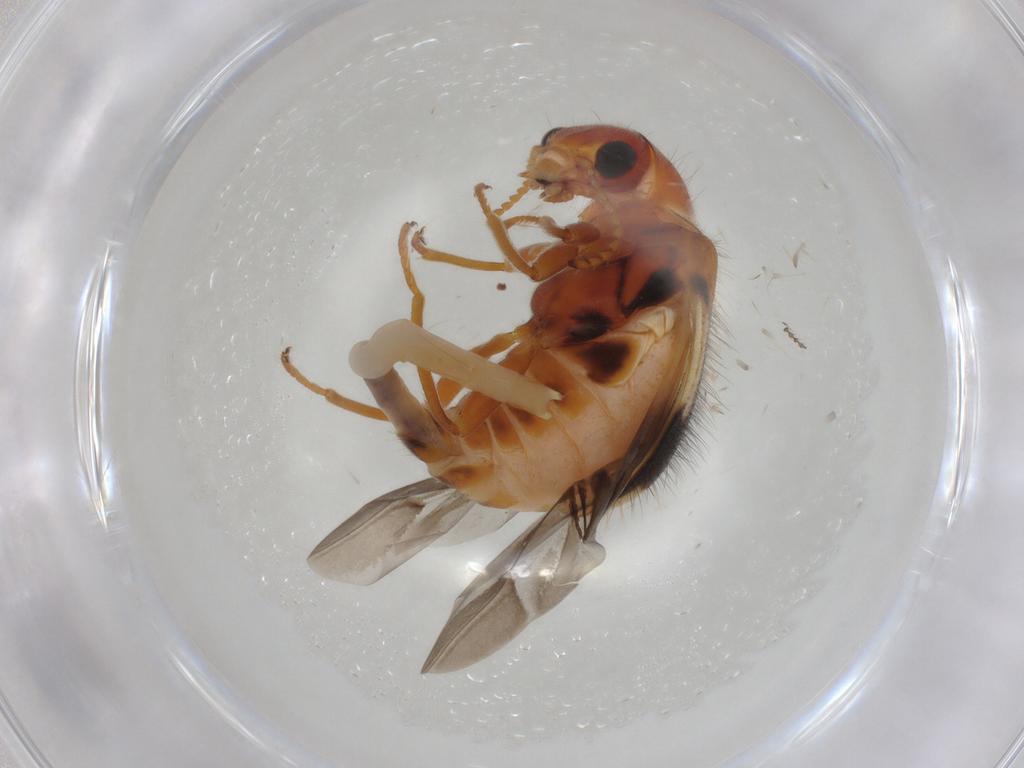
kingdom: Animalia
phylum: Arthropoda
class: Insecta
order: Coleoptera
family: Melyridae
